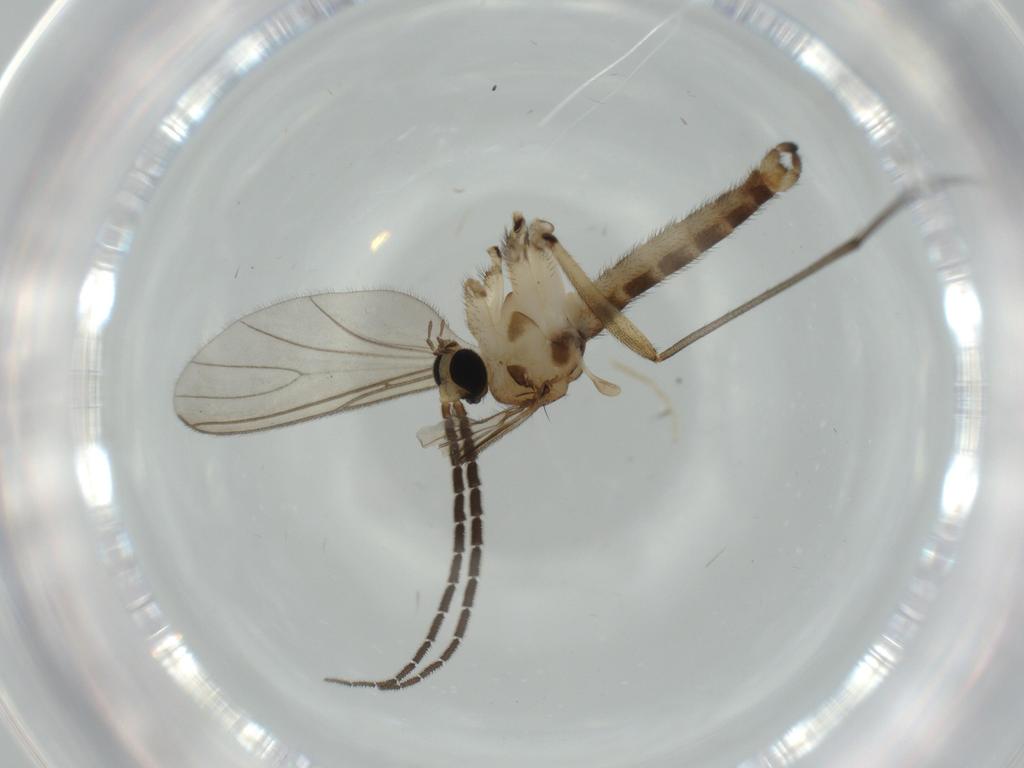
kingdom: Animalia
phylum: Arthropoda
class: Insecta
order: Diptera
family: Sciaridae
